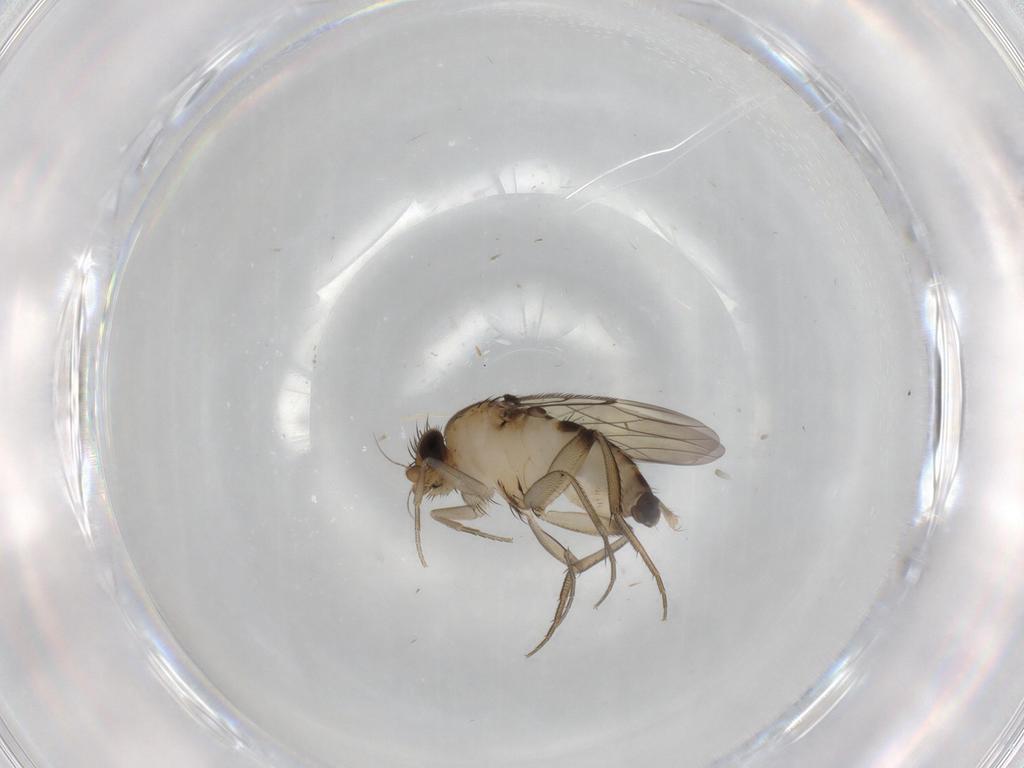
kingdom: Animalia
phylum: Arthropoda
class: Insecta
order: Diptera
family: Phoridae
